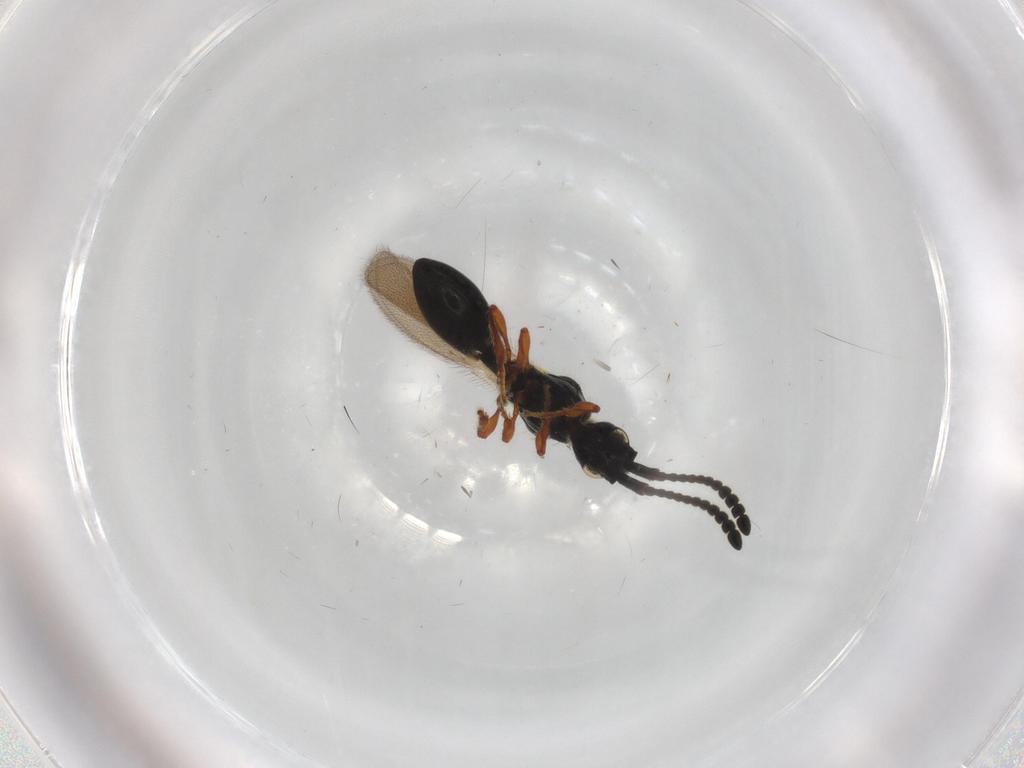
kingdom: Animalia
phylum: Arthropoda
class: Insecta
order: Hymenoptera
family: Diapriidae
